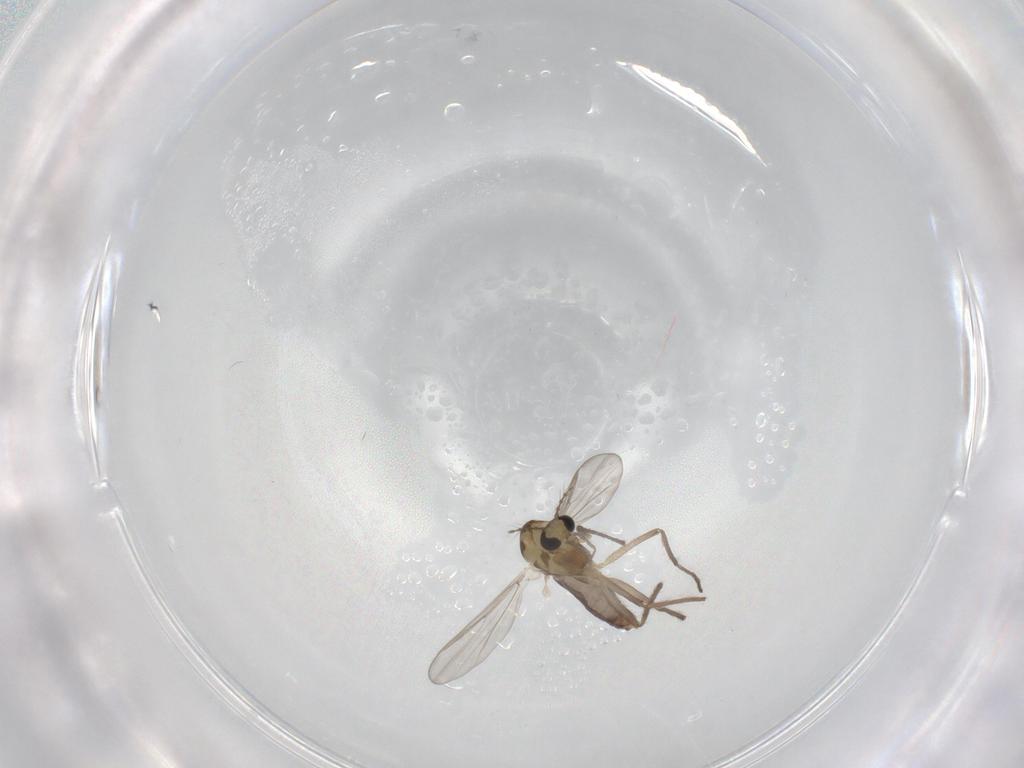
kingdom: Animalia
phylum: Arthropoda
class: Insecta
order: Diptera
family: Chironomidae
